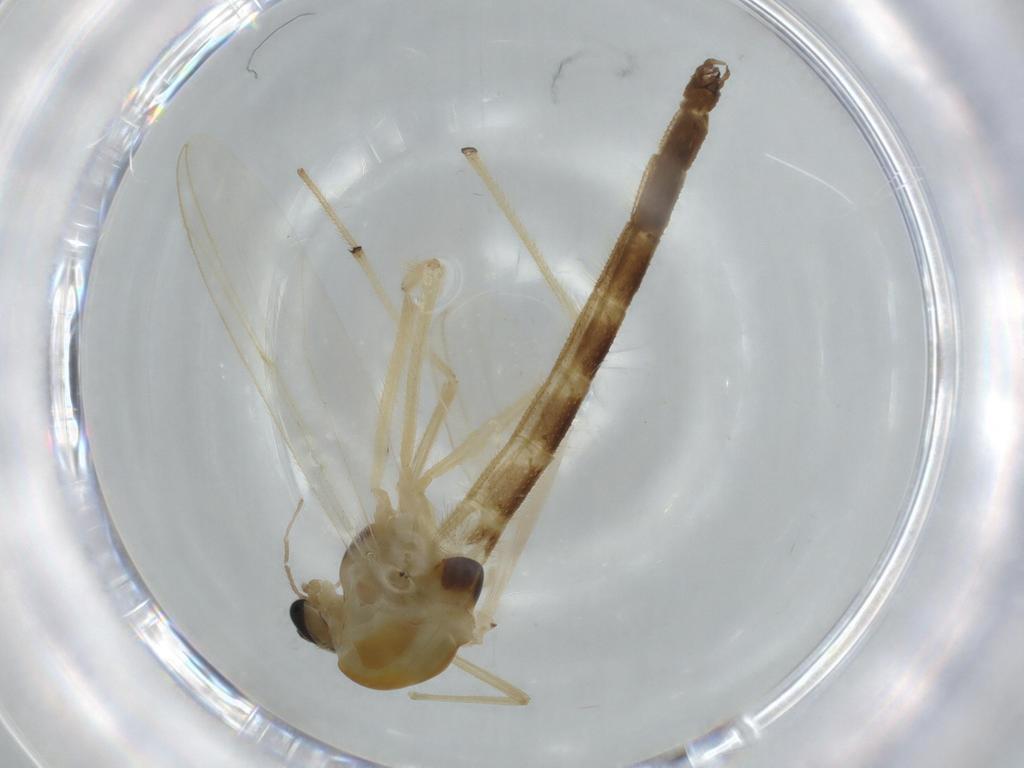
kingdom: Animalia
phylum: Arthropoda
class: Insecta
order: Diptera
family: Chironomidae
